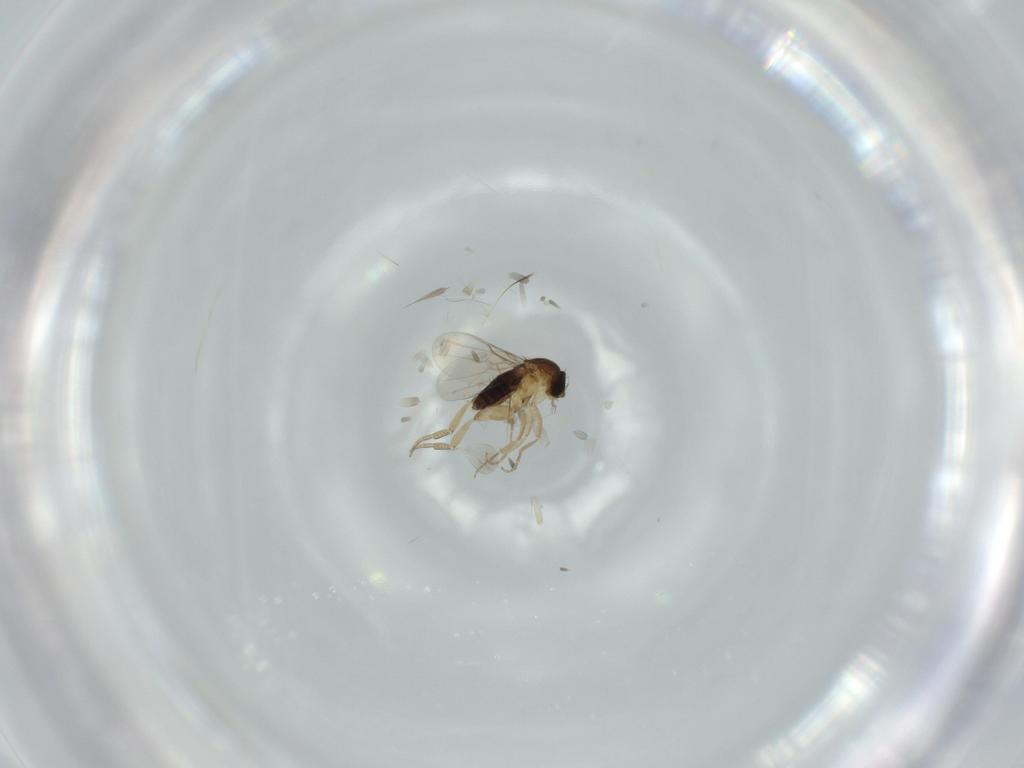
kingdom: Animalia
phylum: Arthropoda
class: Insecta
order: Diptera
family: Phoridae
